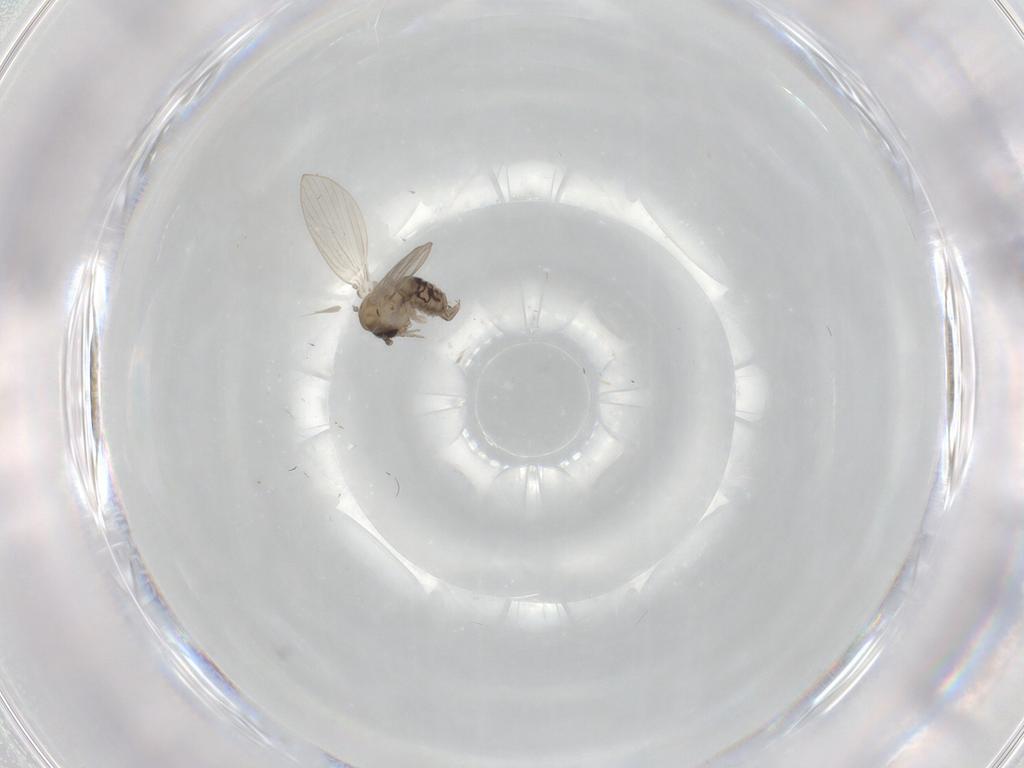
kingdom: Animalia
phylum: Arthropoda
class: Insecta
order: Diptera
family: Psychodidae
